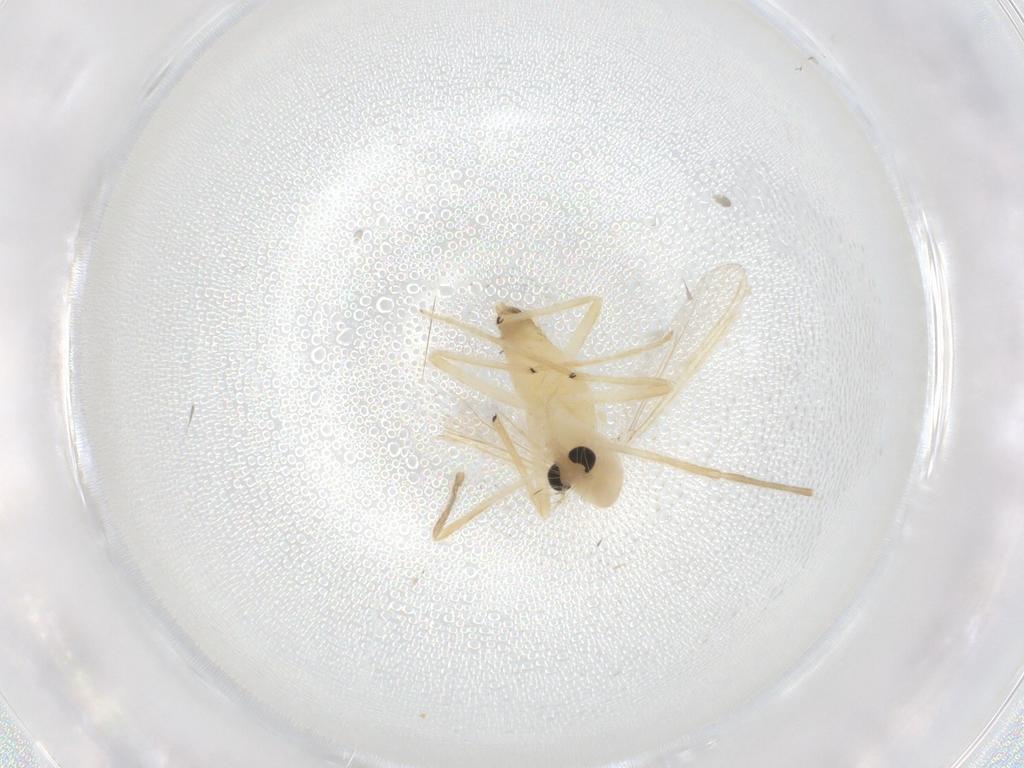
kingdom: Animalia
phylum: Arthropoda
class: Insecta
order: Diptera
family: Chironomidae
